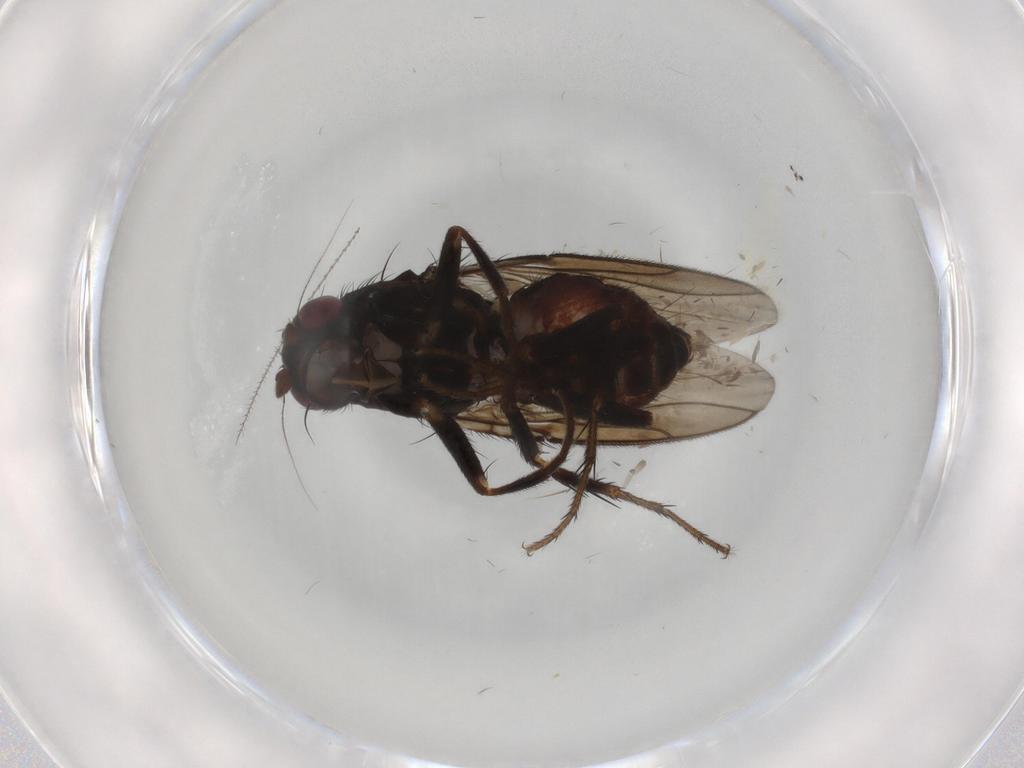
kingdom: Animalia
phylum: Arthropoda
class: Insecta
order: Diptera
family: Sphaeroceridae
